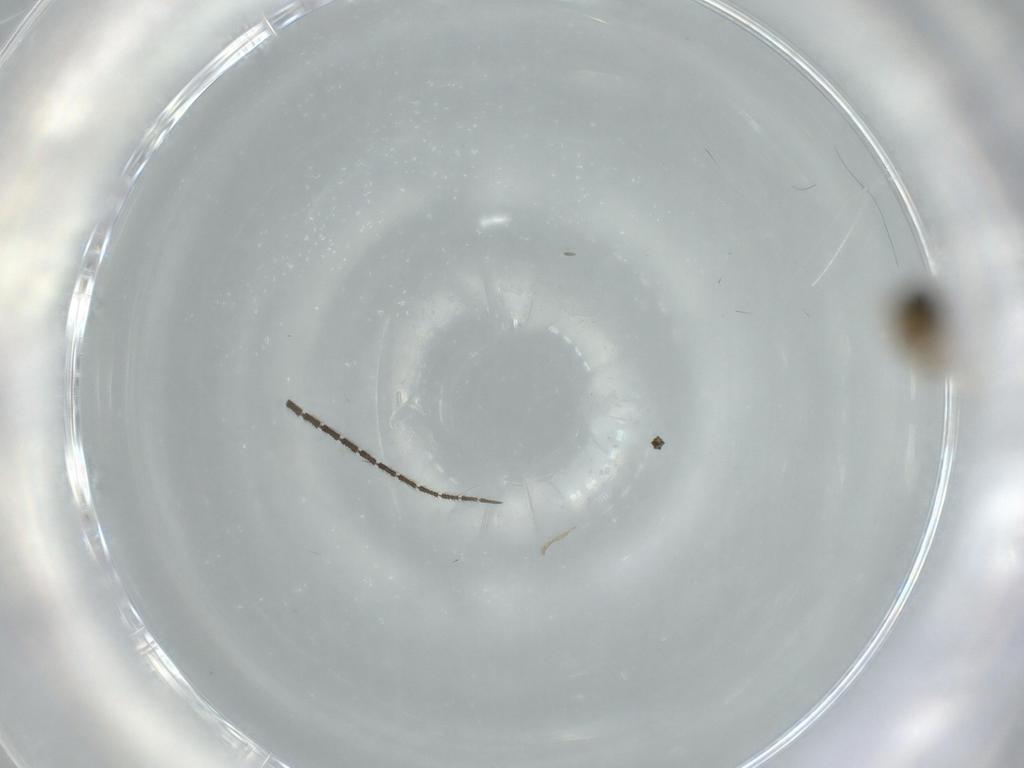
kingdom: Animalia
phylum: Arthropoda
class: Insecta
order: Diptera
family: Sciaridae
